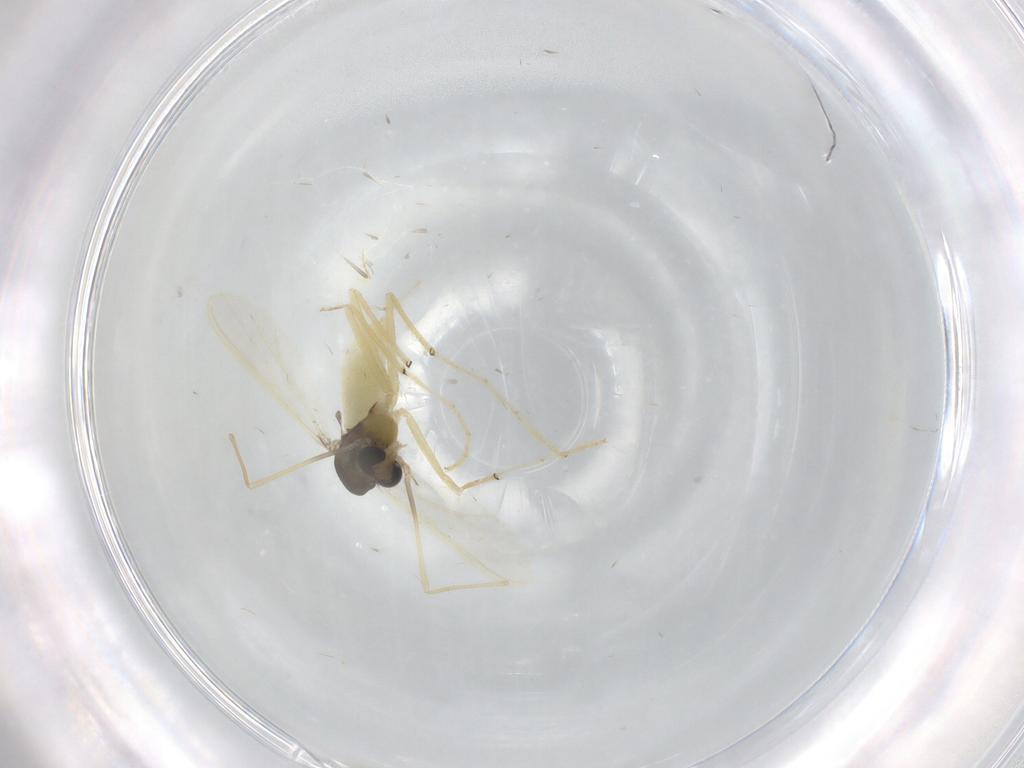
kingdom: Animalia
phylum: Arthropoda
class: Insecta
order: Diptera
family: Chironomidae
